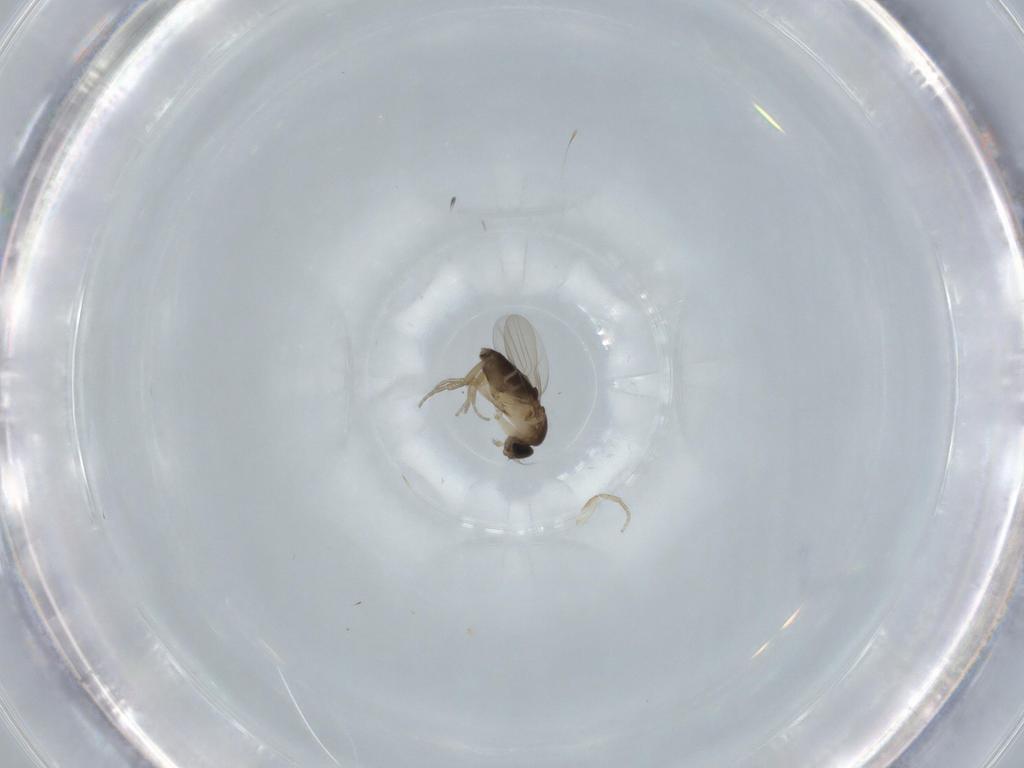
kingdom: Animalia
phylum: Arthropoda
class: Insecta
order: Diptera
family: Phoridae
